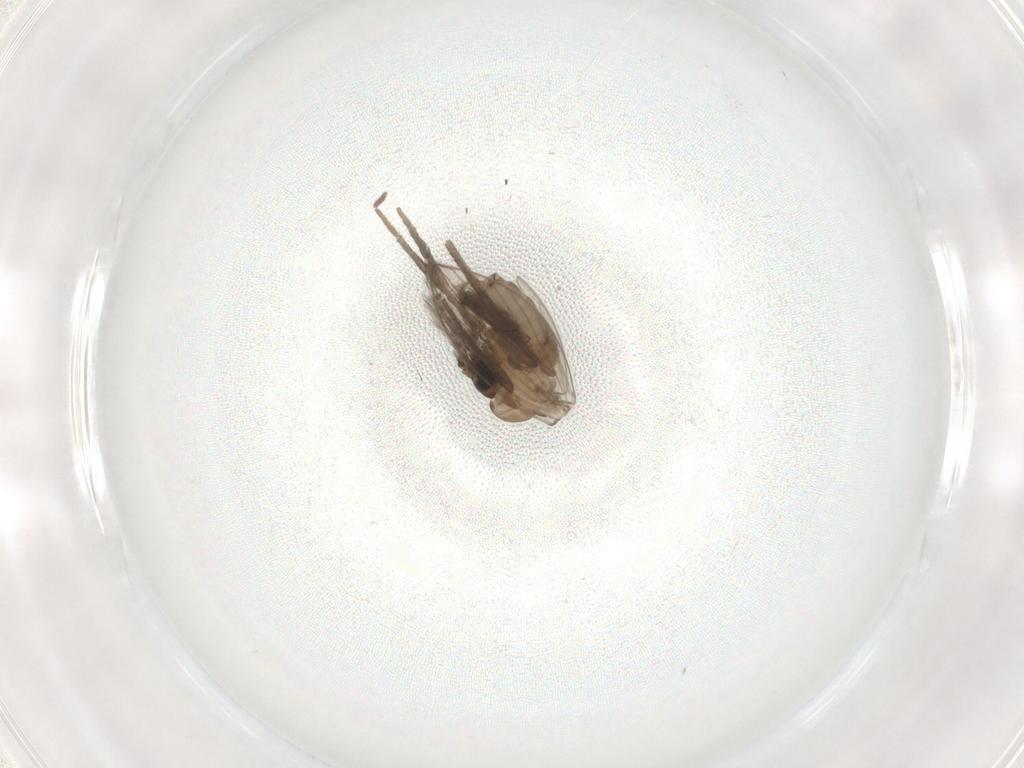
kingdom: Animalia
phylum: Arthropoda
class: Insecta
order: Diptera
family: Psychodidae
